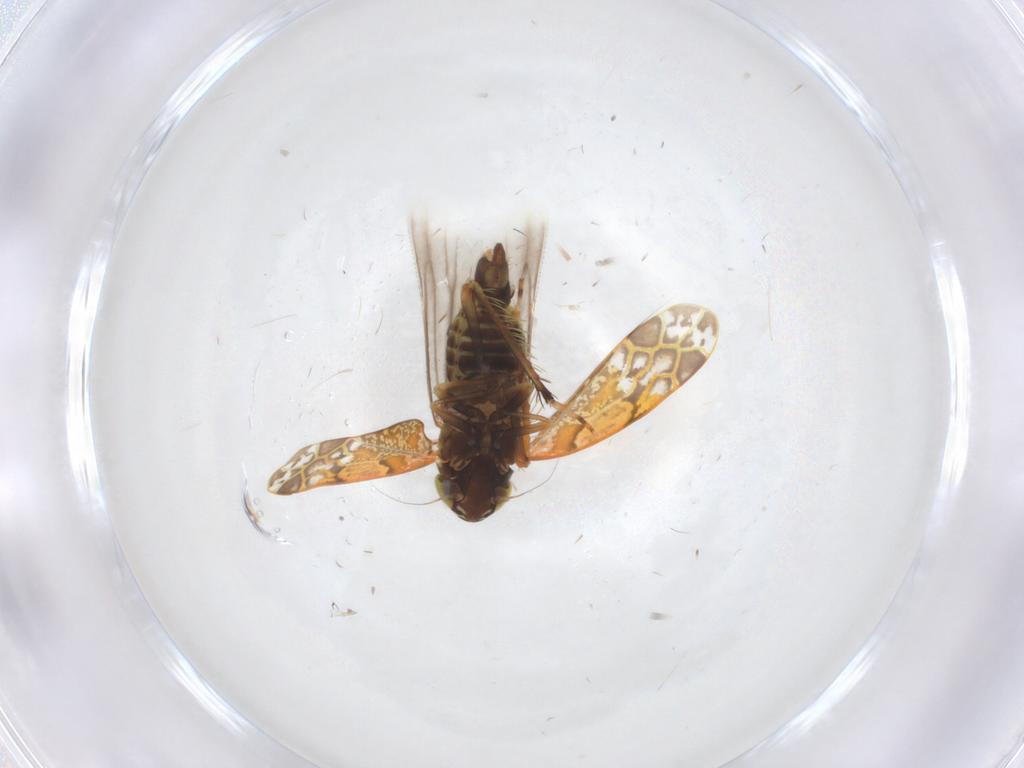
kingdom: Animalia
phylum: Arthropoda
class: Insecta
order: Hemiptera
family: Cicadellidae
